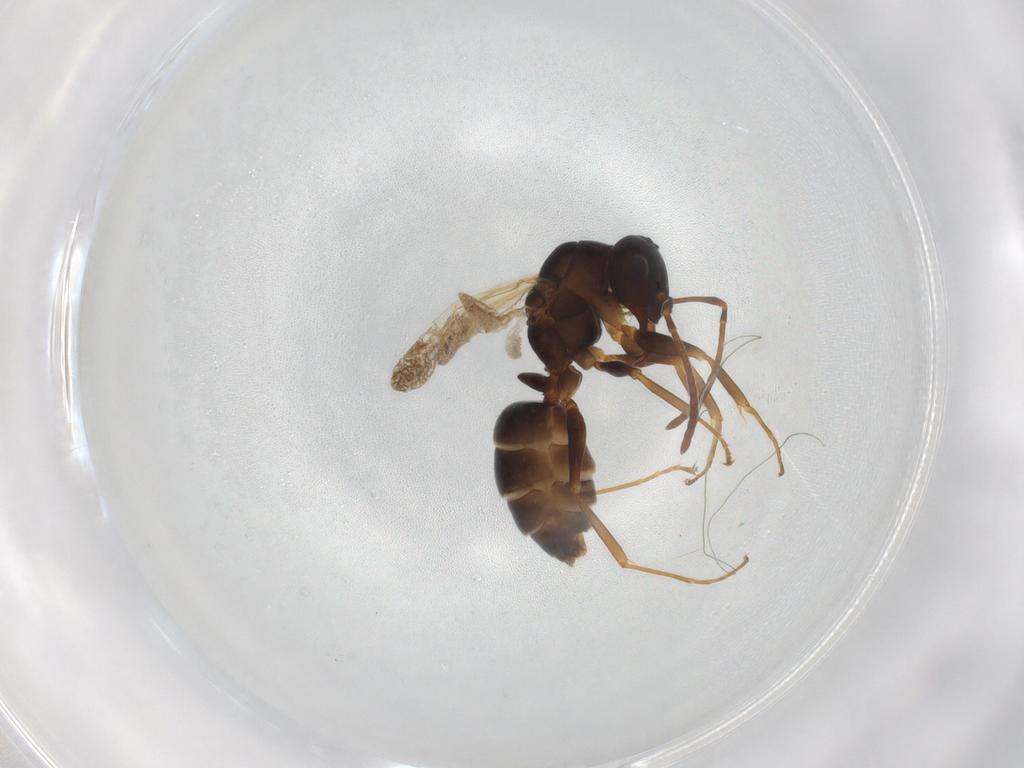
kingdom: Animalia
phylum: Arthropoda
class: Insecta
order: Hymenoptera
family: Formicidae
